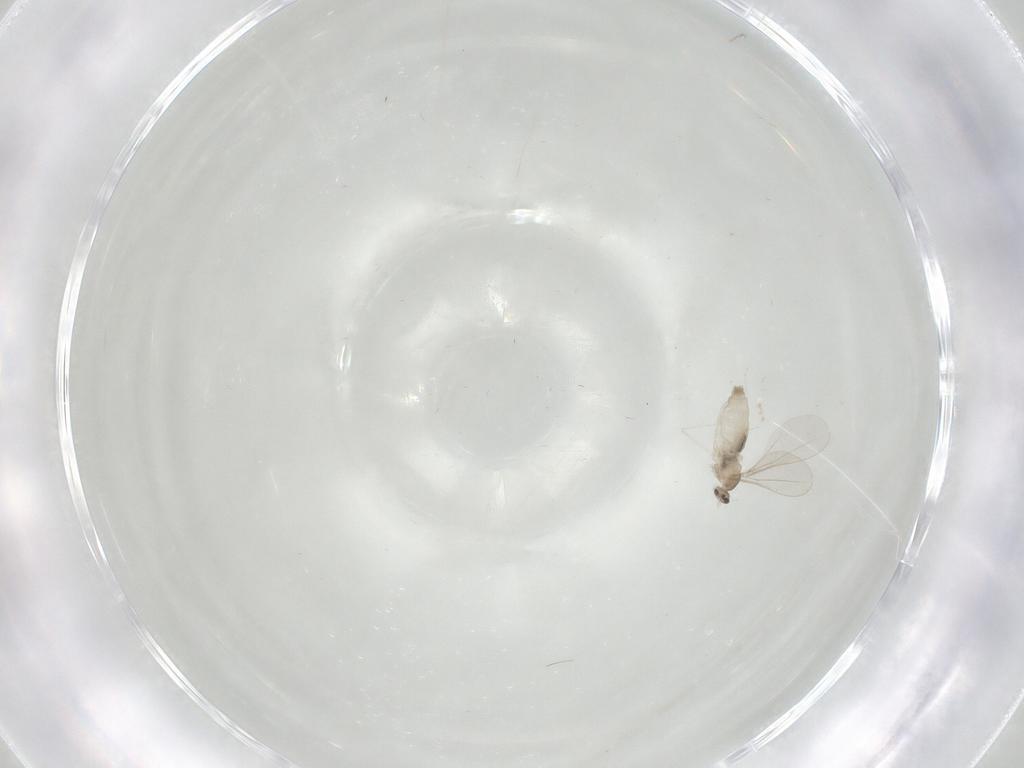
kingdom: Animalia
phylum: Arthropoda
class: Insecta
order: Diptera
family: Cecidomyiidae
